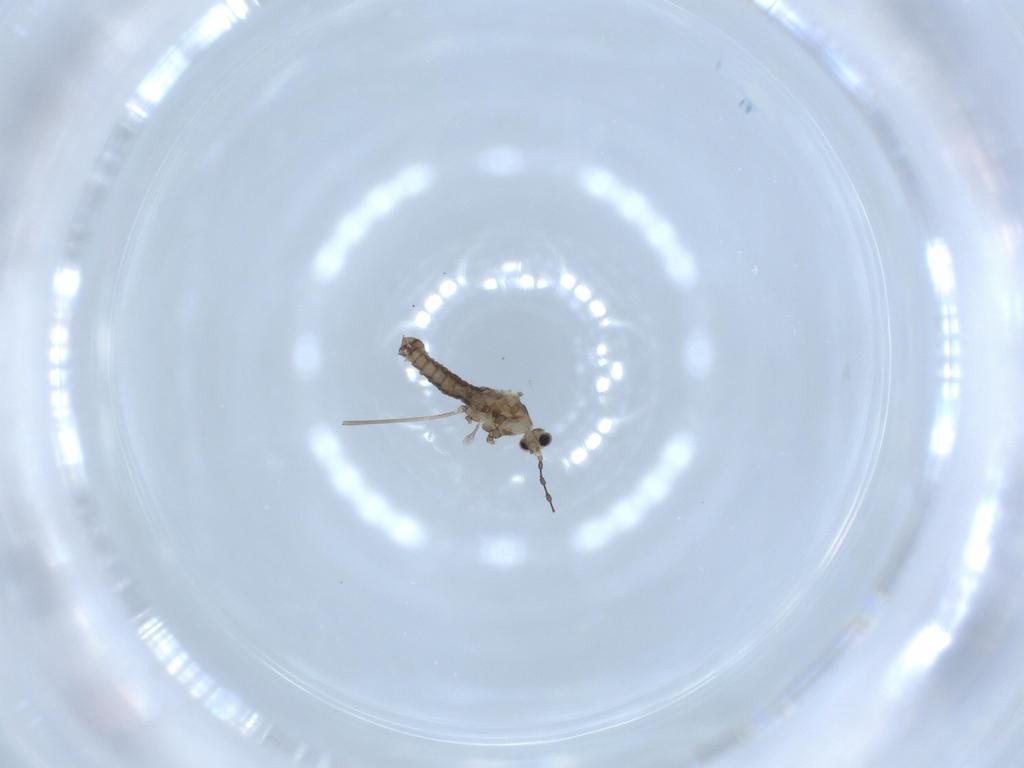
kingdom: Animalia
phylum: Arthropoda
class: Insecta
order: Diptera
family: Cecidomyiidae
